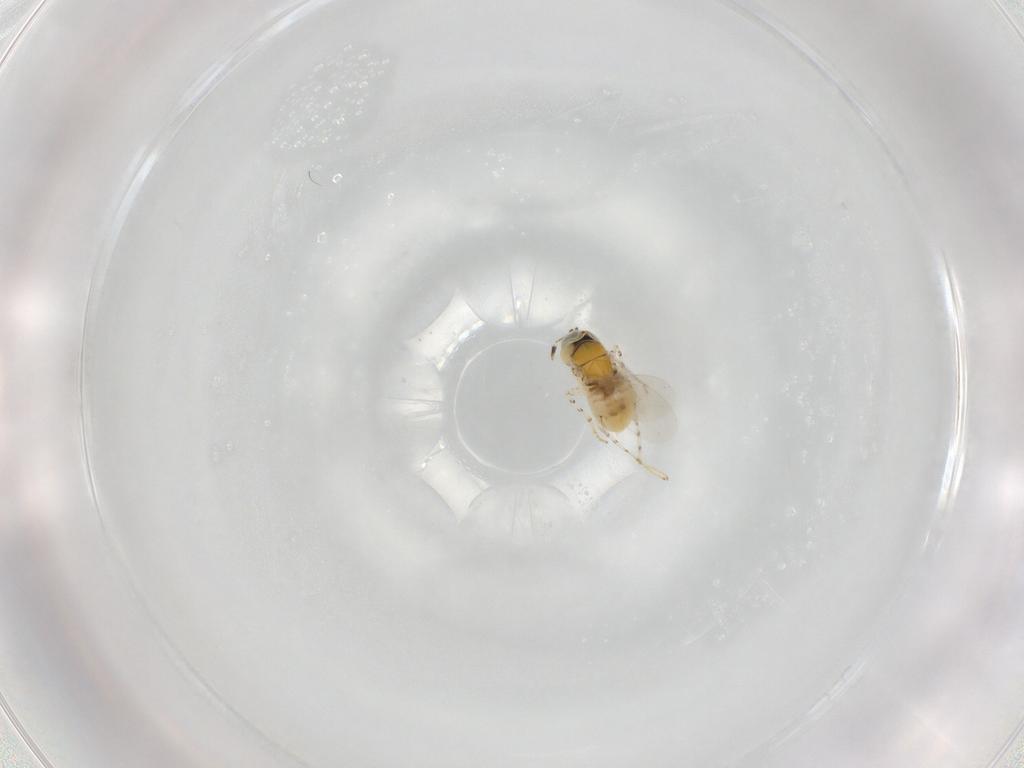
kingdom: Animalia
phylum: Arthropoda
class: Insecta
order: Hymenoptera
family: Encyrtidae
